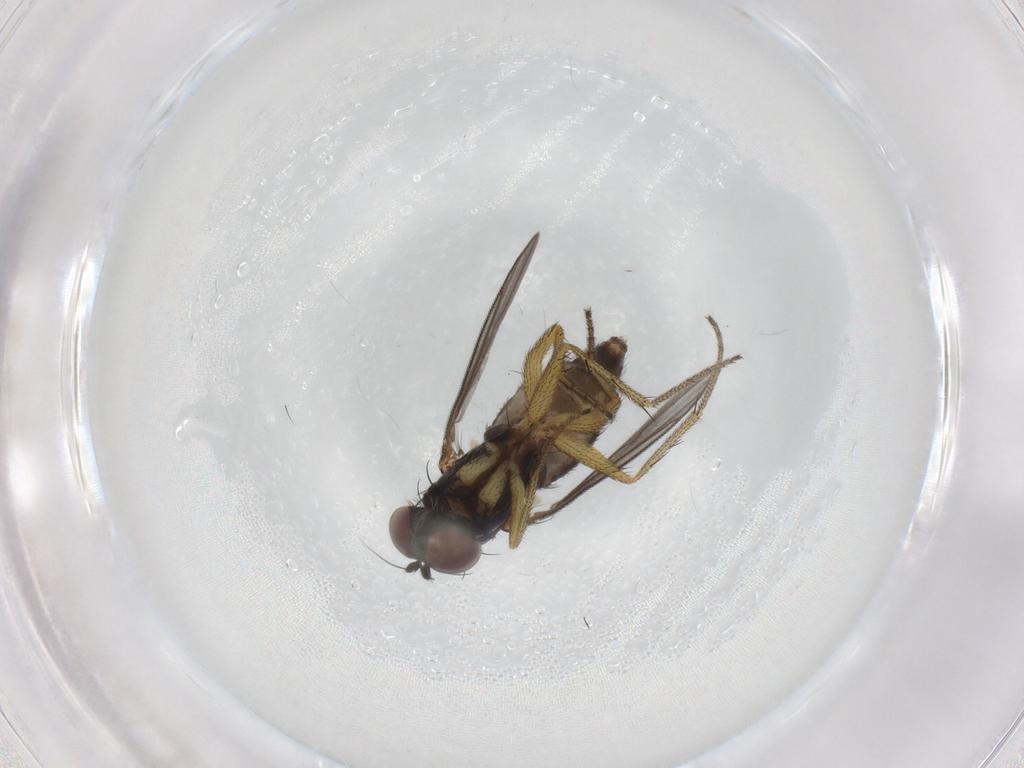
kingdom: Animalia
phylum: Arthropoda
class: Insecta
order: Diptera
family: Dolichopodidae
